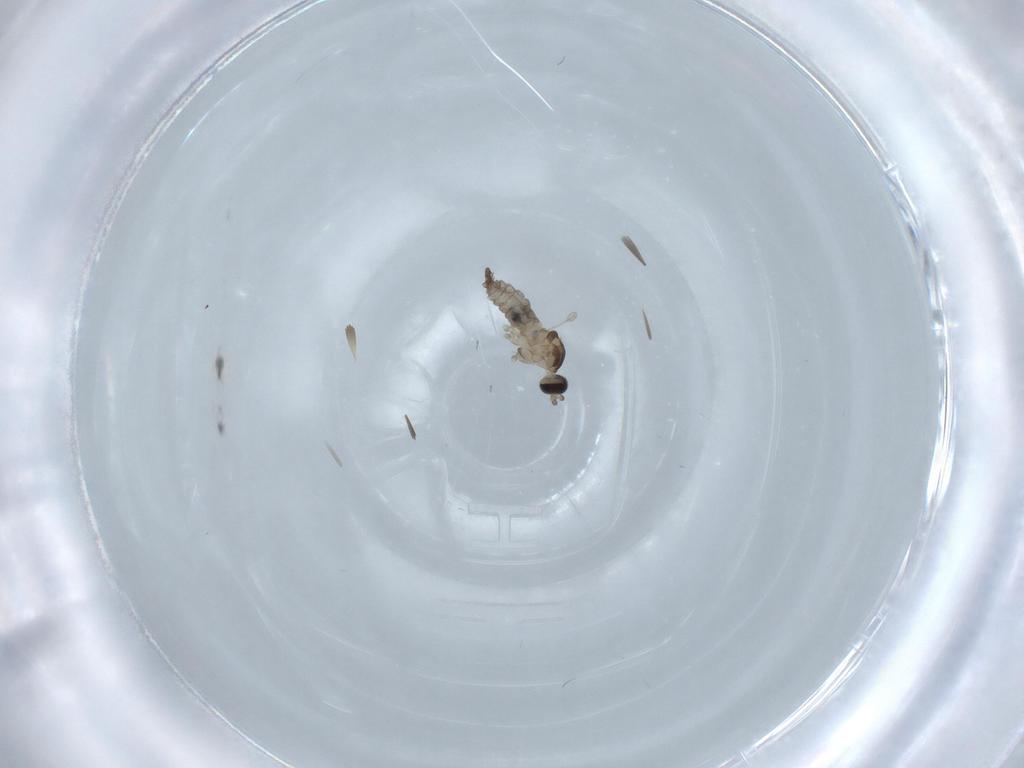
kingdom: Animalia
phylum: Arthropoda
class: Insecta
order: Diptera
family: Cecidomyiidae
